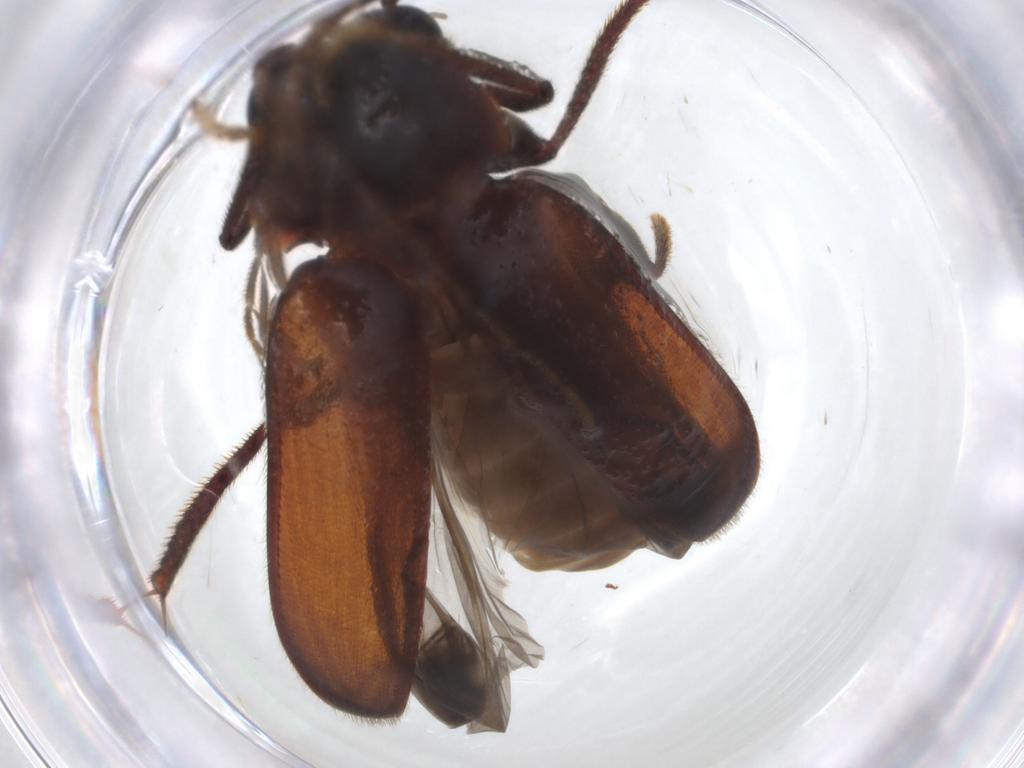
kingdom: Animalia
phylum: Arthropoda
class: Insecta
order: Coleoptera
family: Ptilodactylidae
